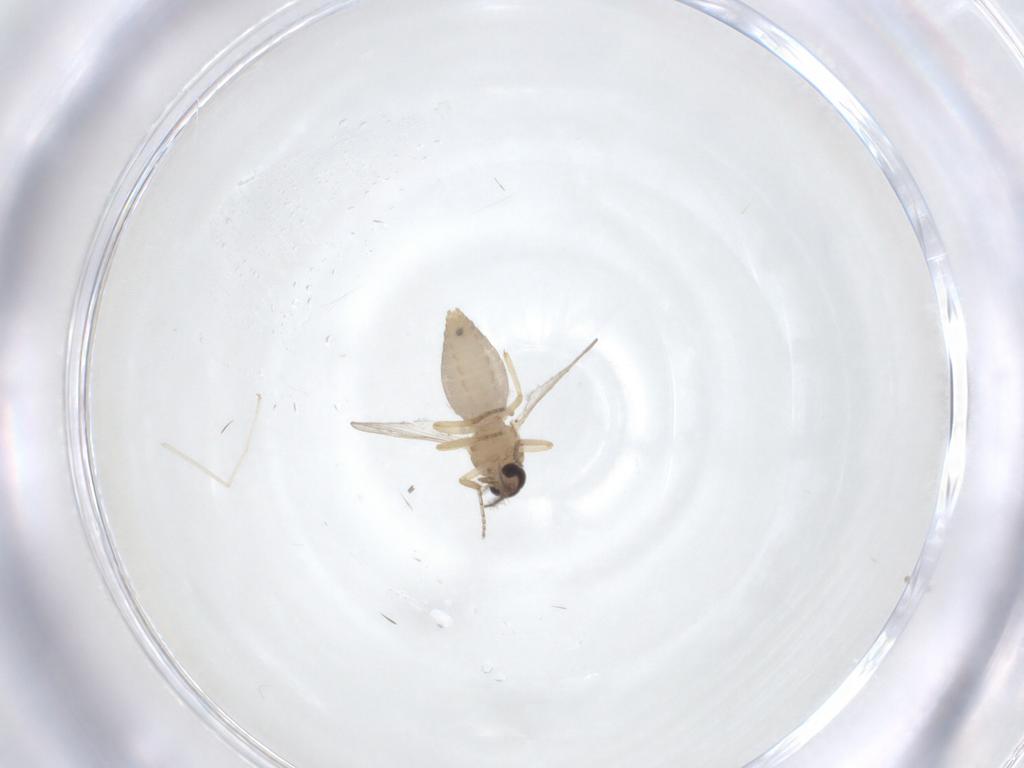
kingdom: Animalia
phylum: Arthropoda
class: Insecta
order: Diptera
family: Ceratopogonidae
